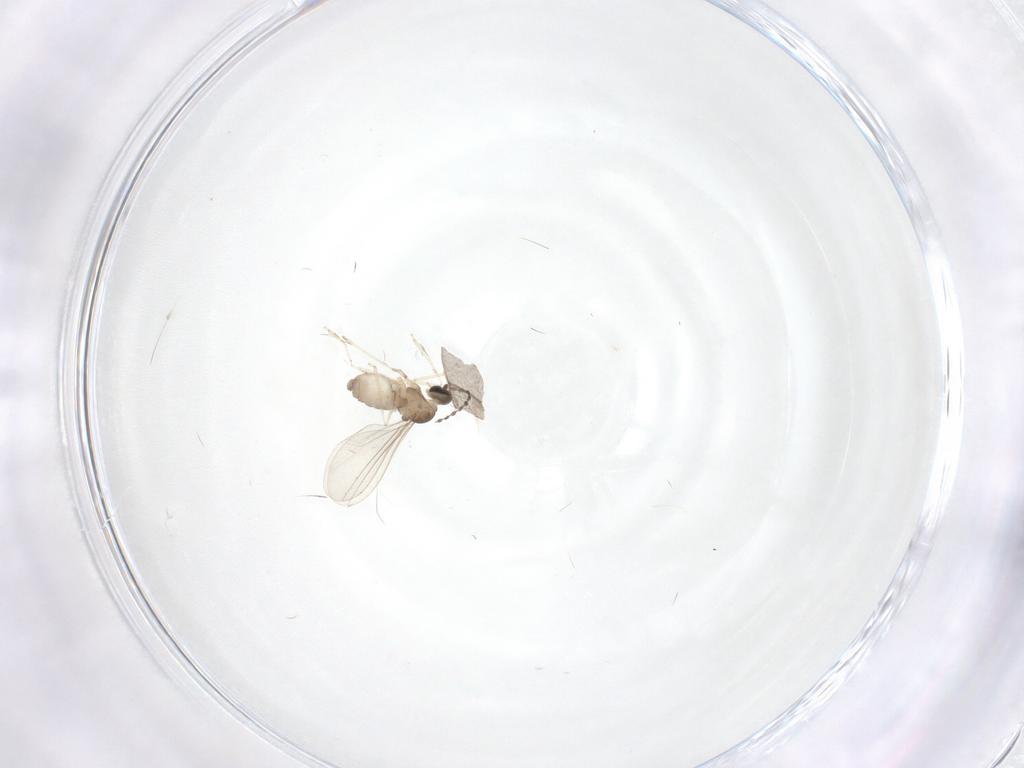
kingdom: Animalia
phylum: Arthropoda
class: Insecta
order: Diptera
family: Cecidomyiidae
